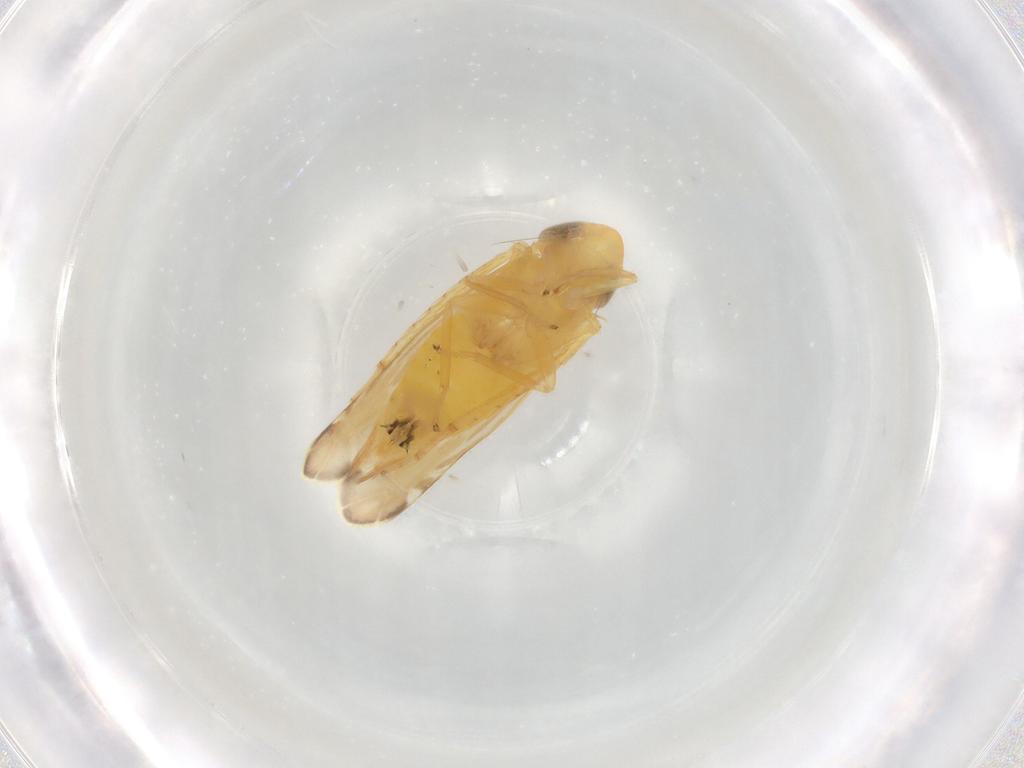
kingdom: Animalia
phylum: Arthropoda
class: Insecta
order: Hemiptera
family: Cicadellidae
